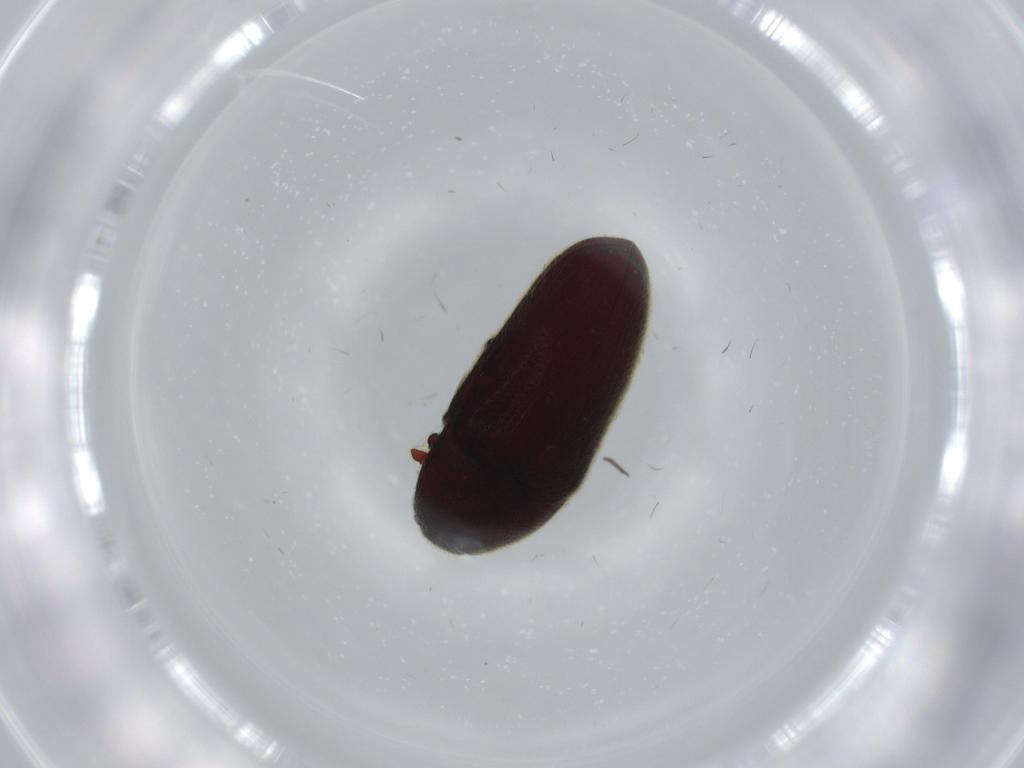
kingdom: Animalia
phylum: Arthropoda
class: Insecta
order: Coleoptera
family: Throscidae
